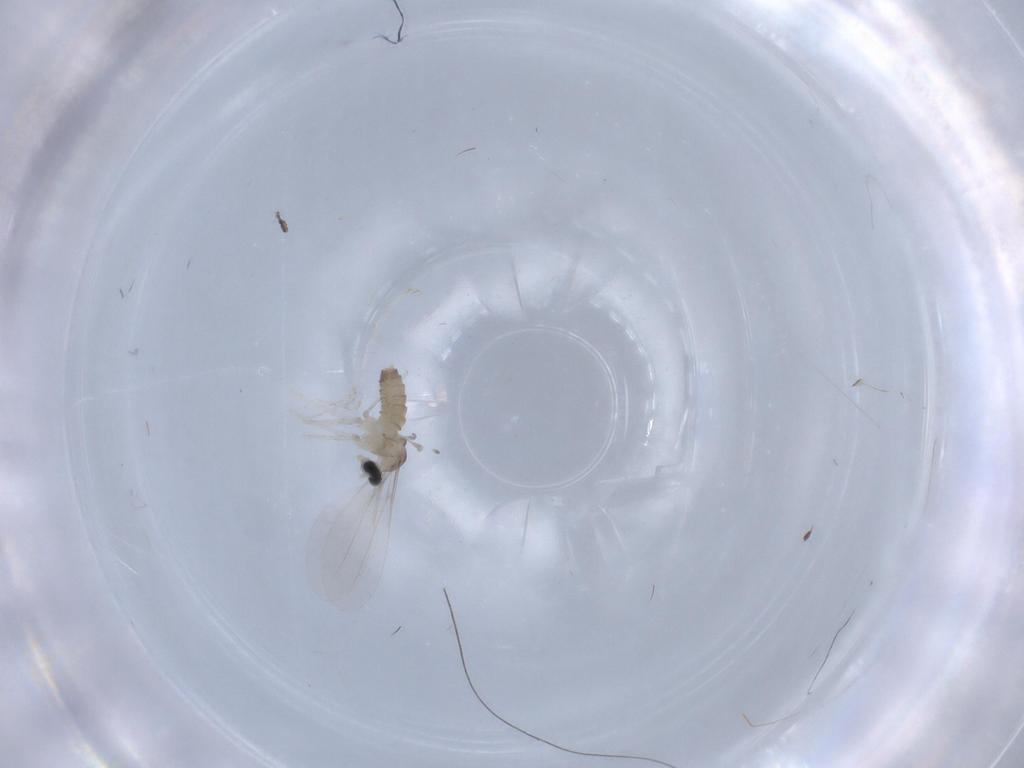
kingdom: Animalia
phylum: Arthropoda
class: Insecta
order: Diptera
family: Cecidomyiidae
